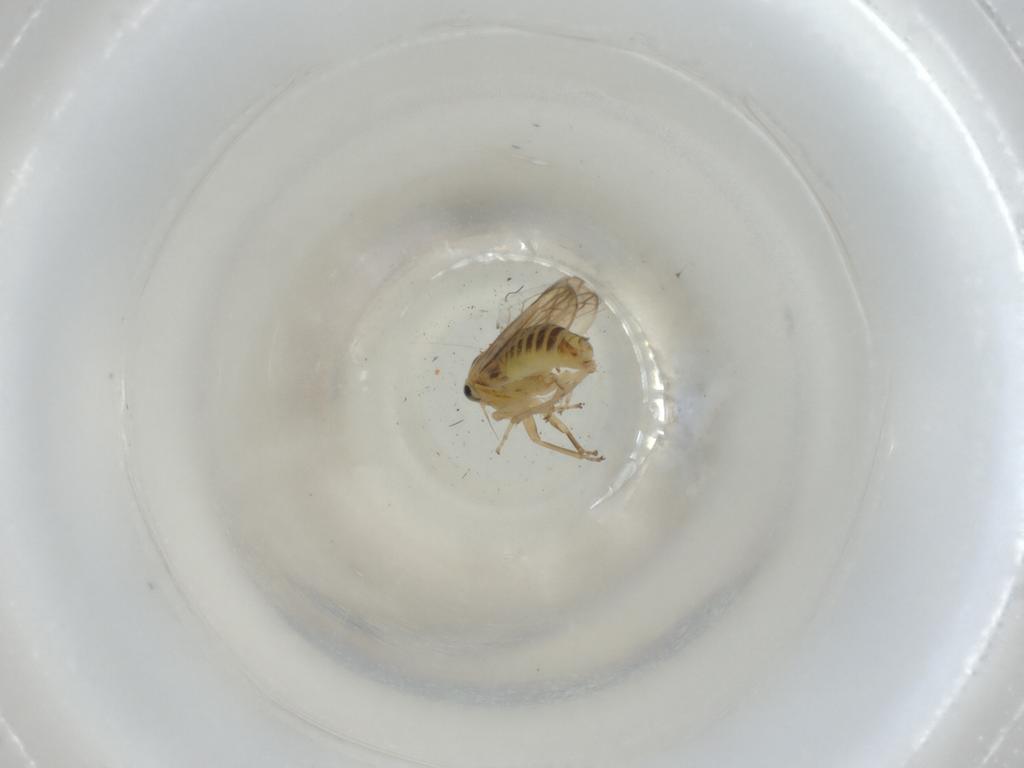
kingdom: Animalia
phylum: Arthropoda
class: Insecta
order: Hemiptera
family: Cicadellidae
